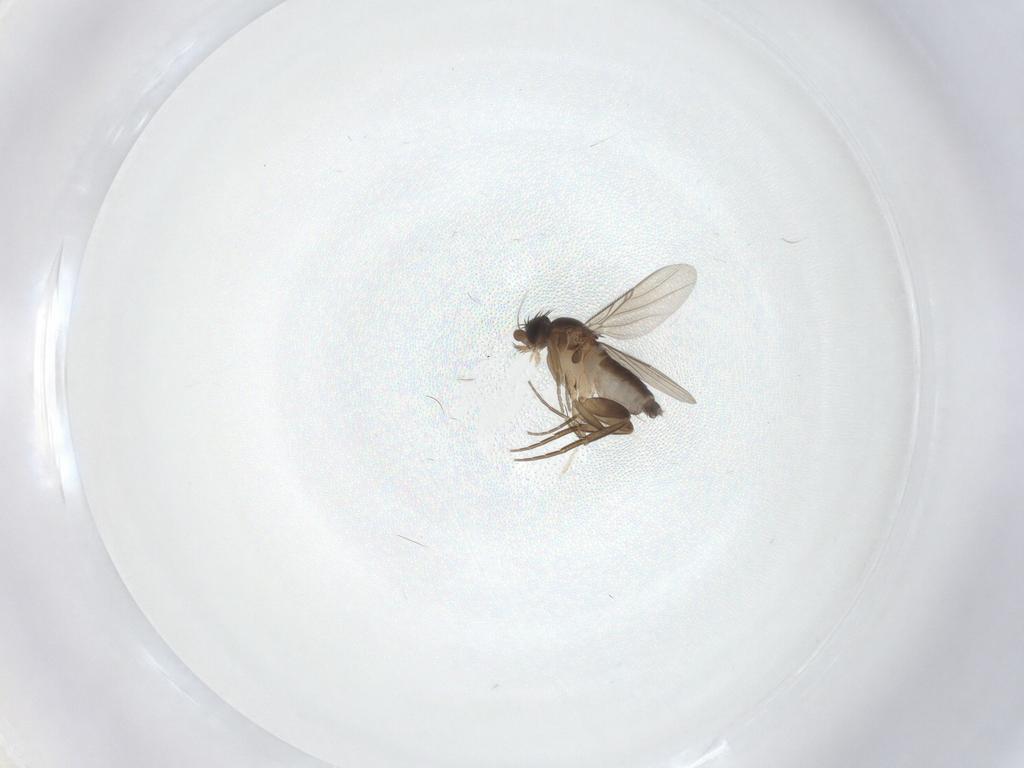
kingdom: Animalia
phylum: Arthropoda
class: Insecta
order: Diptera
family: Phoridae
